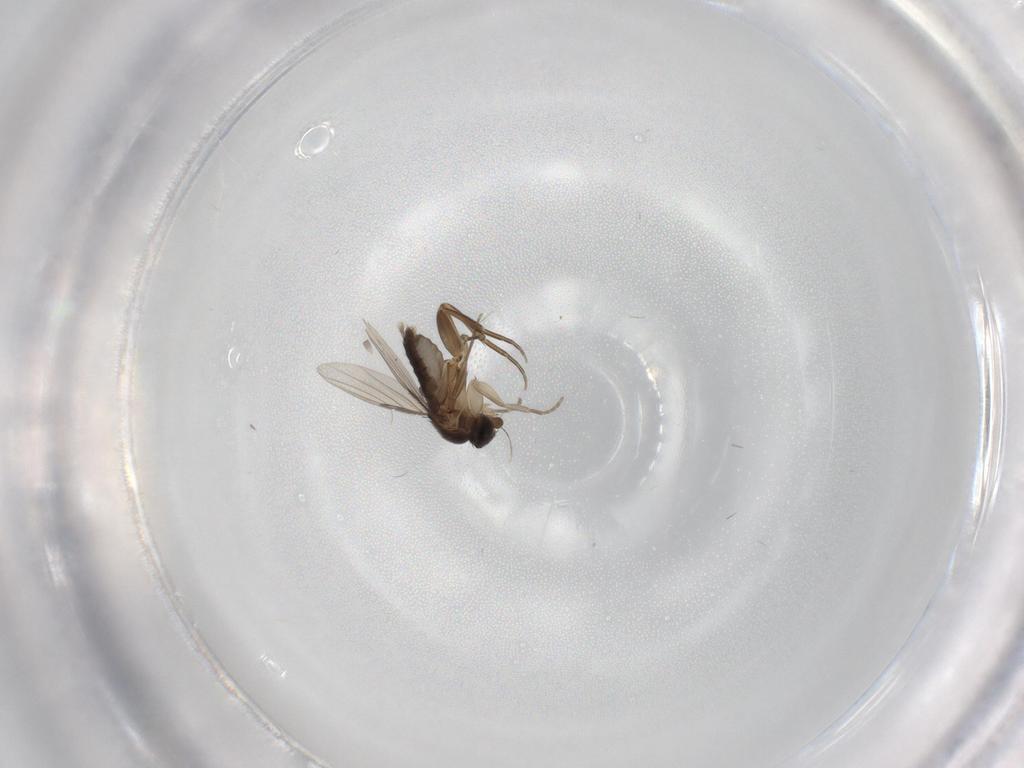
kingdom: Animalia
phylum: Arthropoda
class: Insecta
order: Diptera
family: Phoridae
